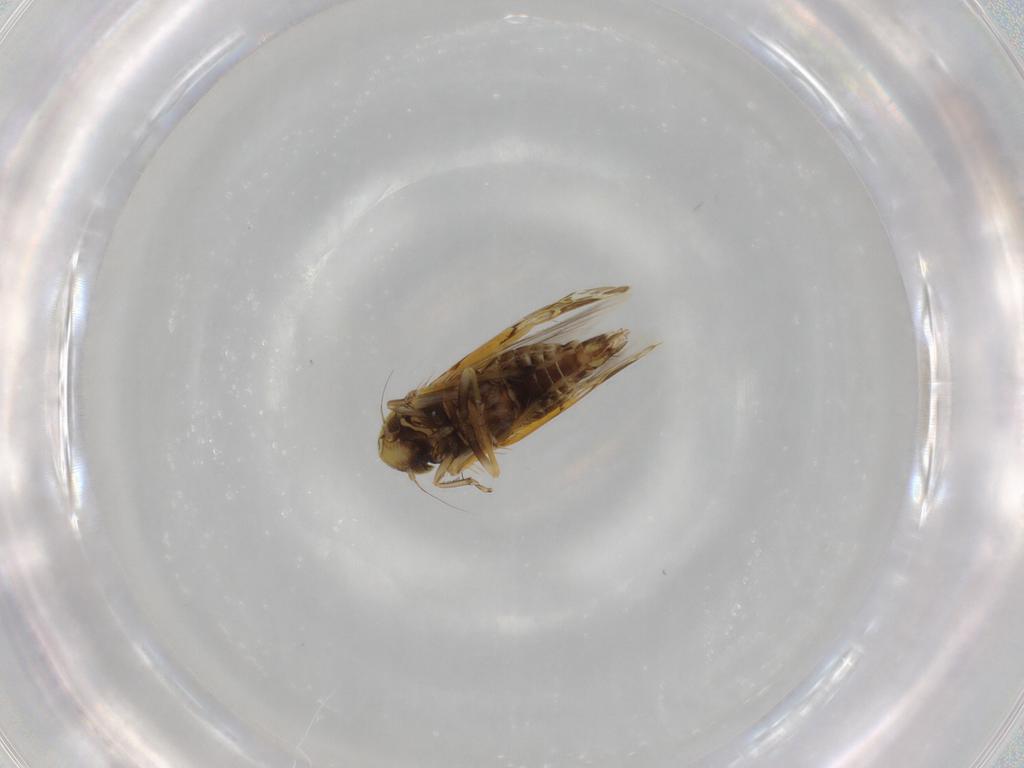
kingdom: Animalia
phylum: Arthropoda
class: Insecta
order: Hemiptera
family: Cicadellidae
